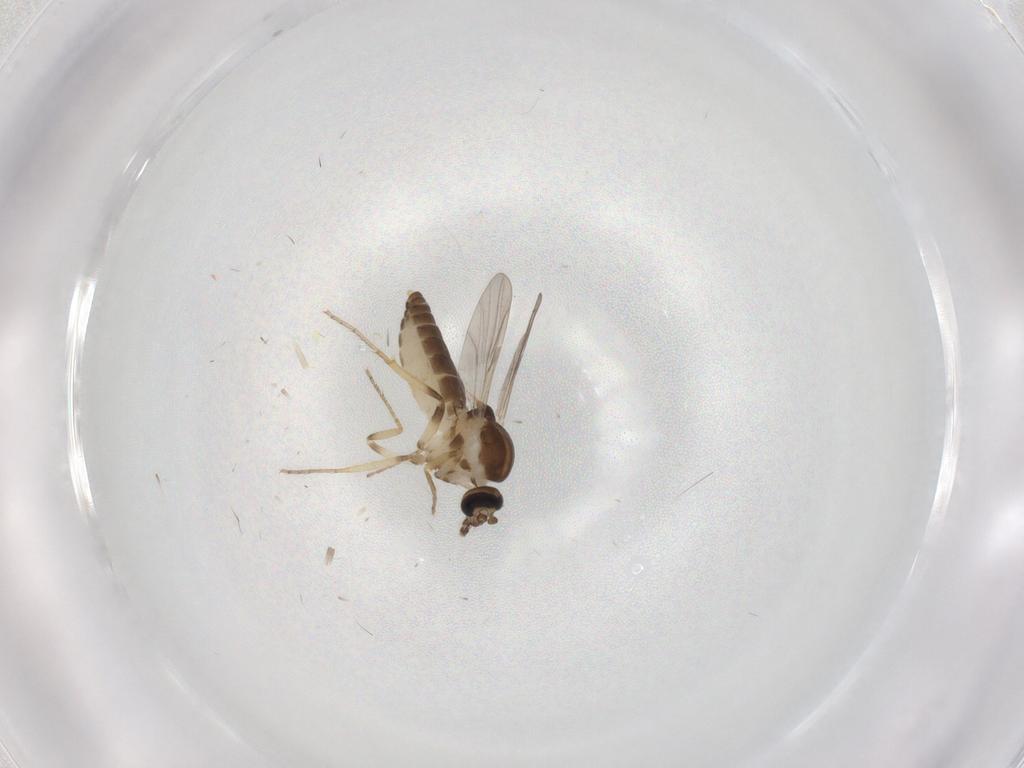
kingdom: Animalia
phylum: Arthropoda
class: Insecta
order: Diptera
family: Ceratopogonidae
